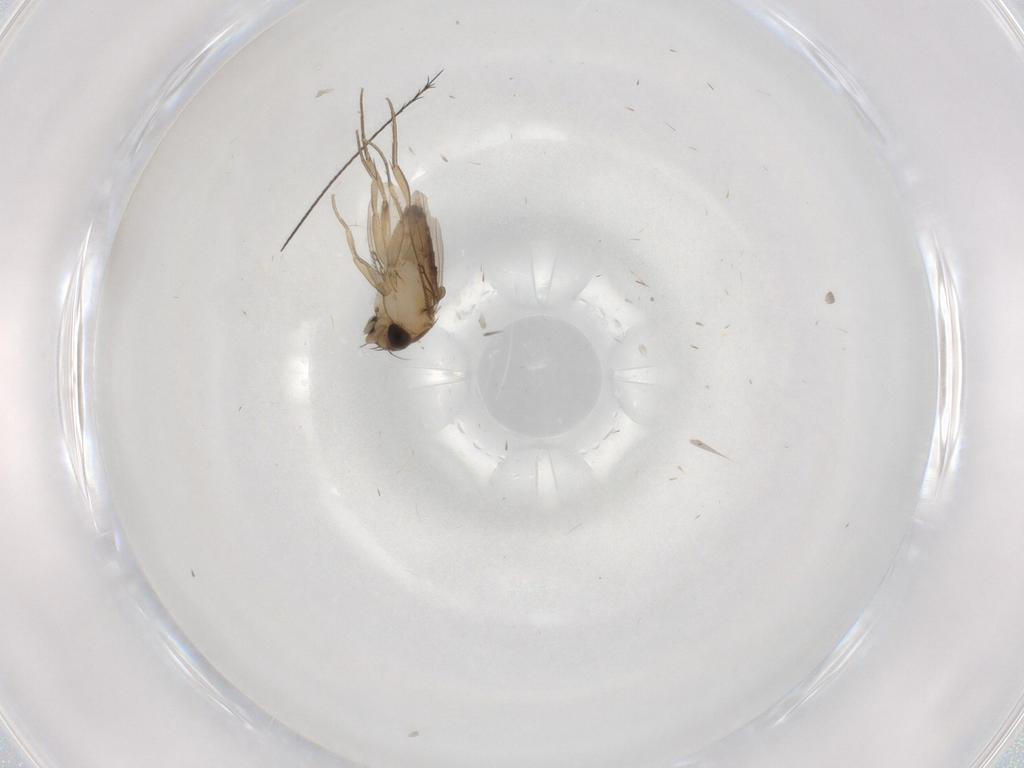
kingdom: Animalia
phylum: Arthropoda
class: Insecta
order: Diptera
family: Phoridae
